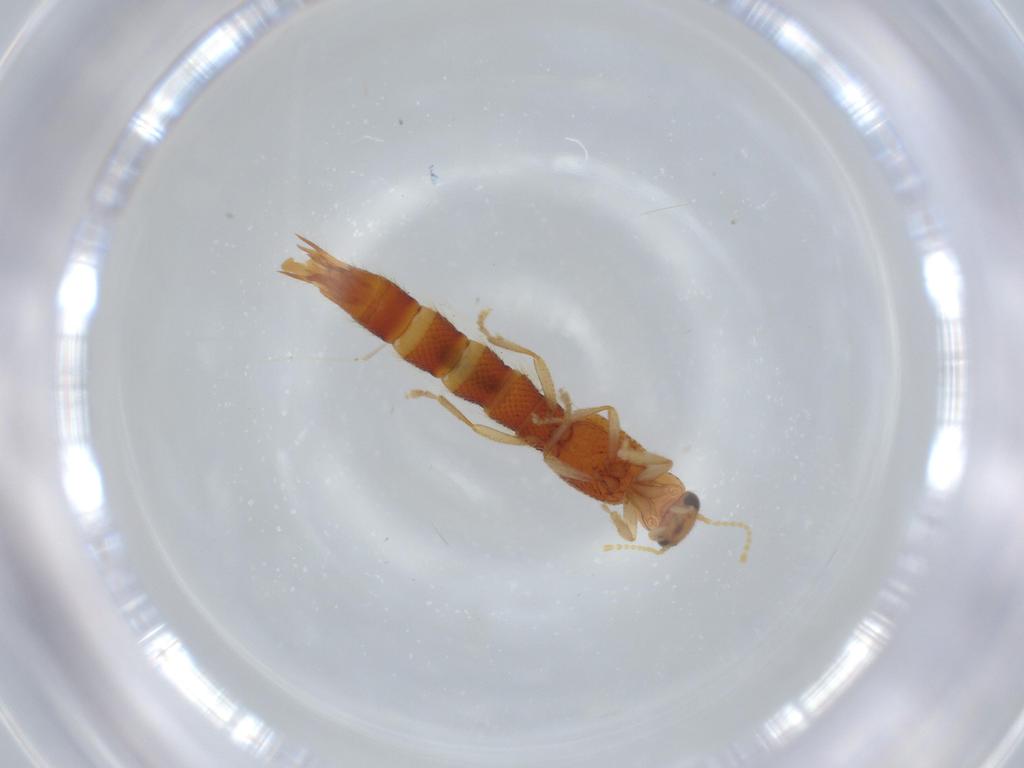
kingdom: Animalia
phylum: Arthropoda
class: Insecta
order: Coleoptera
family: Staphylinidae
